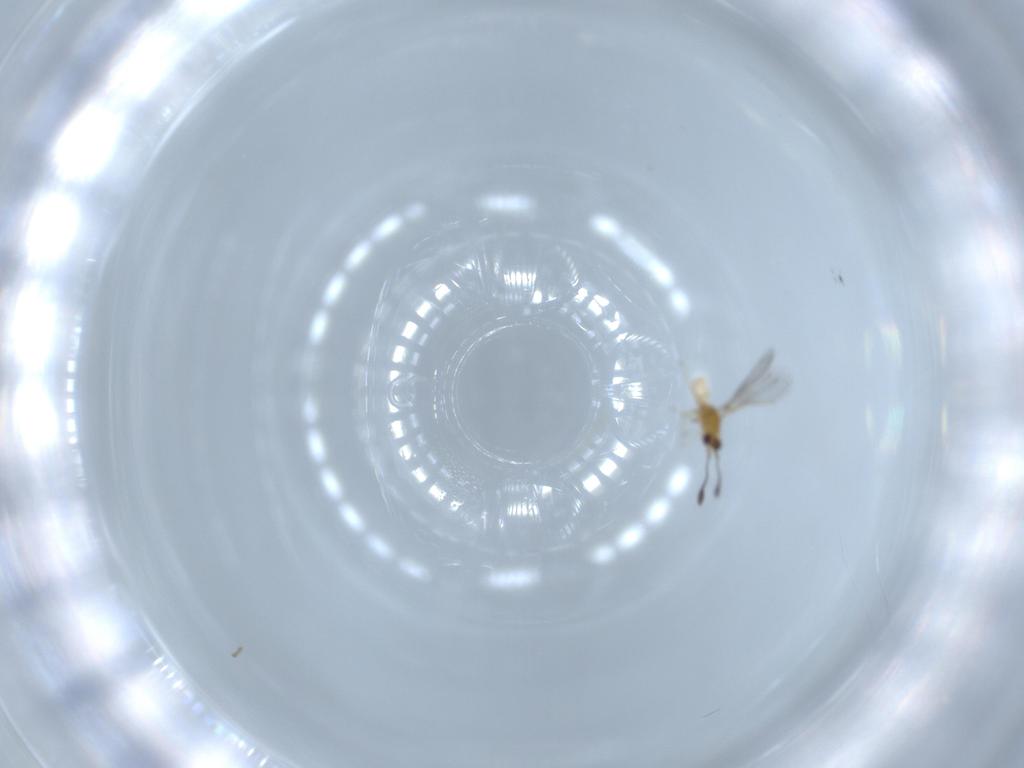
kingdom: Animalia
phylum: Arthropoda
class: Insecta
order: Hymenoptera
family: Mymaridae
